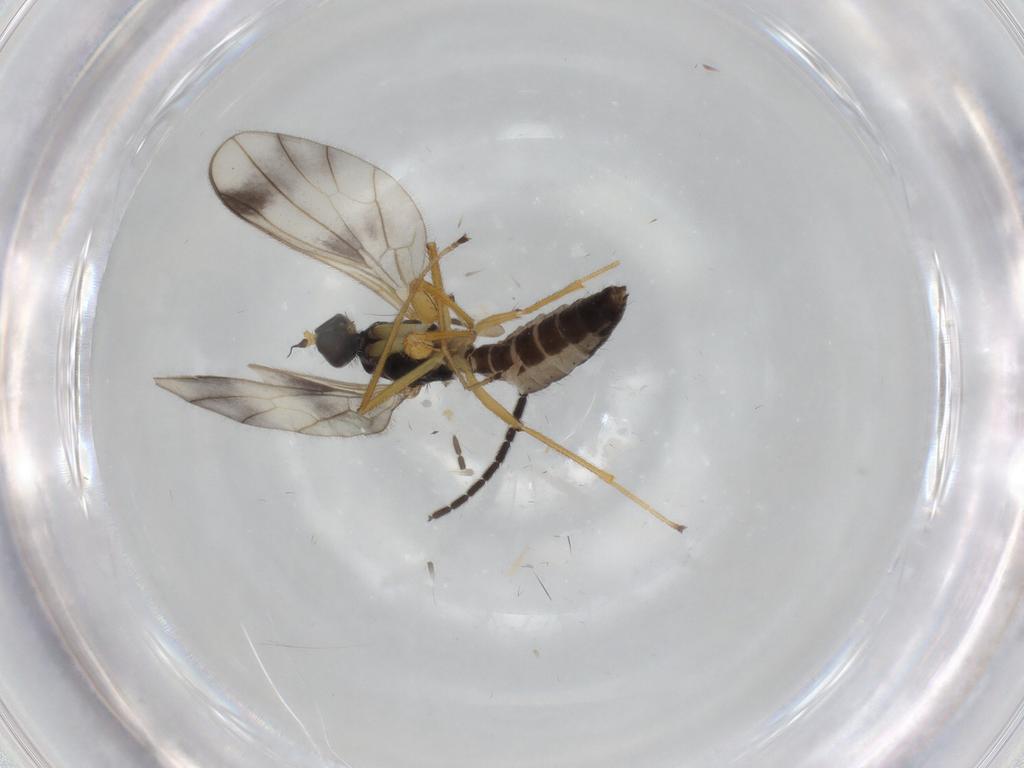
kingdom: Animalia
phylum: Arthropoda
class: Insecta
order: Diptera
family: Empididae
